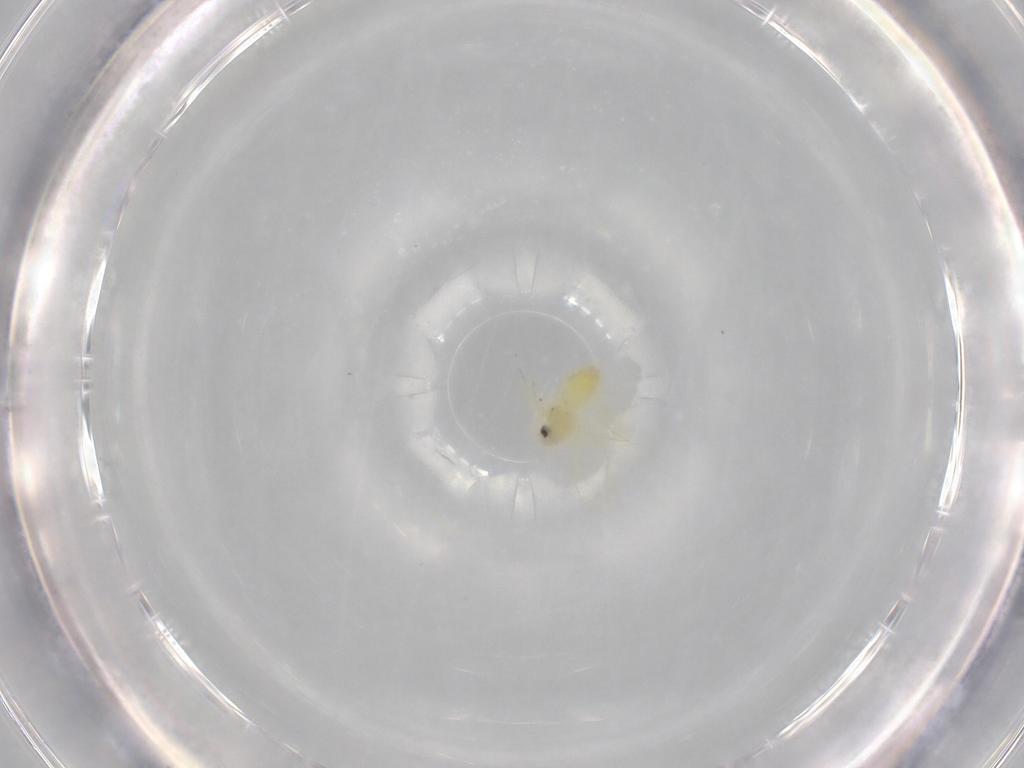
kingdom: Animalia
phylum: Arthropoda
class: Insecta
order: Hemiptera
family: Aleyrodidae
